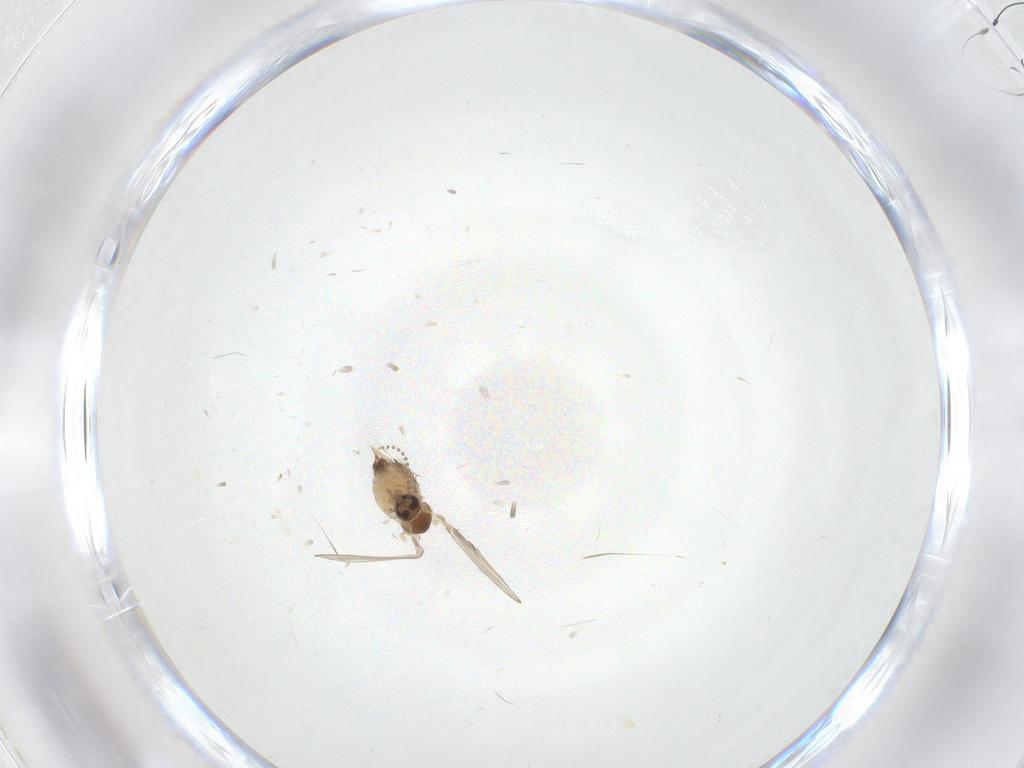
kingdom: Animalia
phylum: Arthropoda
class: Insecta
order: Diptera
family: Psychodidae
